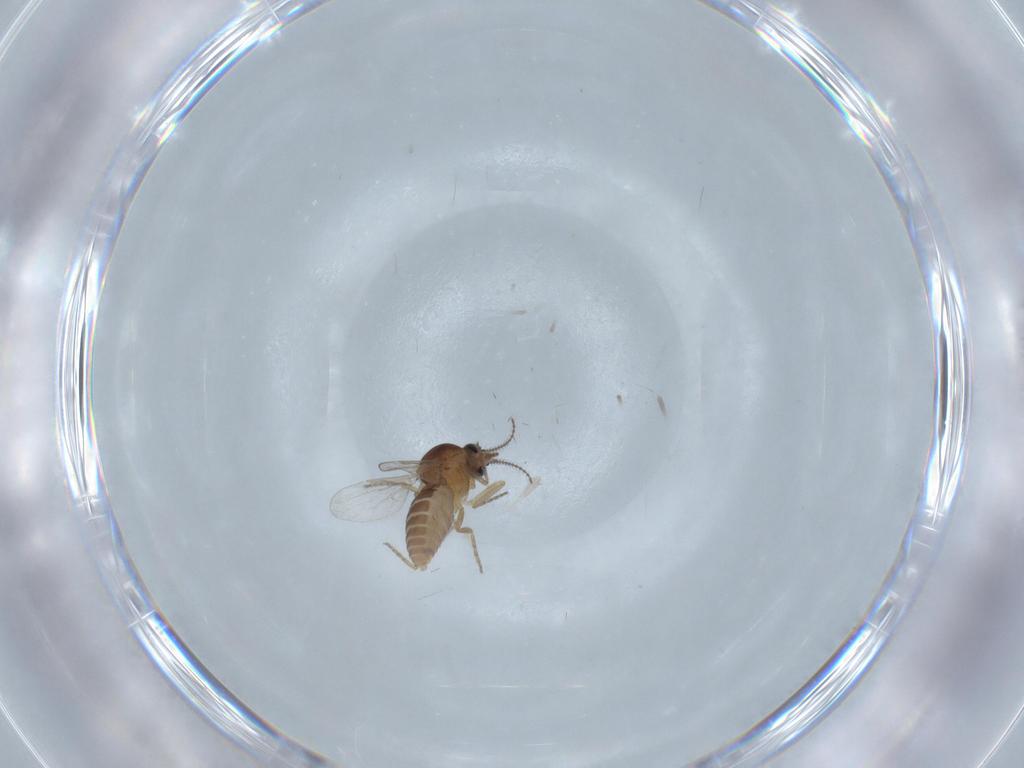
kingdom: Animalia
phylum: Arthropoda
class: Insecta
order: Diptera
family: Ceratopogonidae
